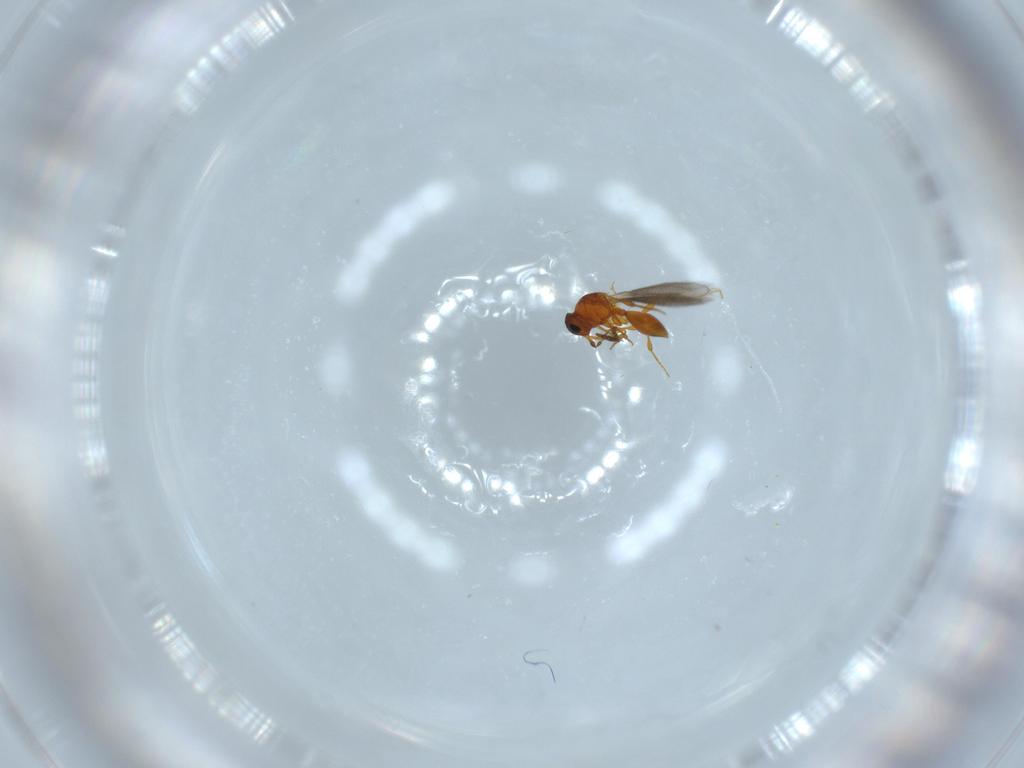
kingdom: Animalia
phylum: Arthropoda
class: Insecta
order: Hymenoptera
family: Platygastridae
